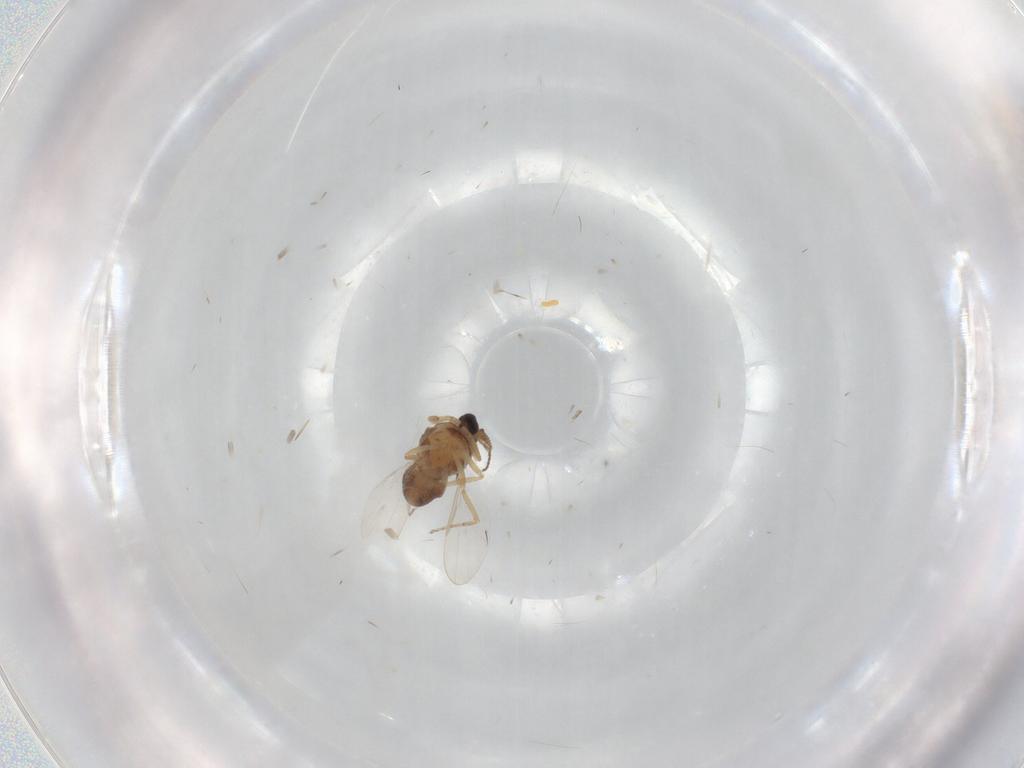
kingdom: Animalia
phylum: Arthropoda
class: Insecta
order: Diptera
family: Ceratopogonidae
